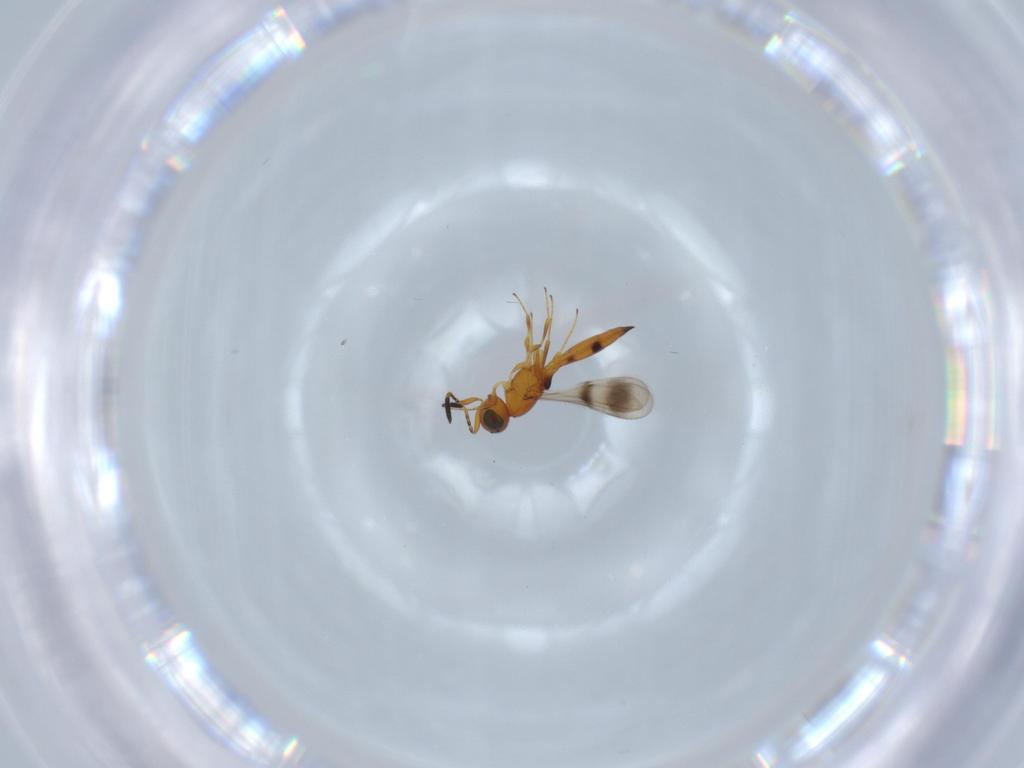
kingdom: Animalia
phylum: Arthropoda
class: Insecta
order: Hymenoptera
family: Scelionidae
